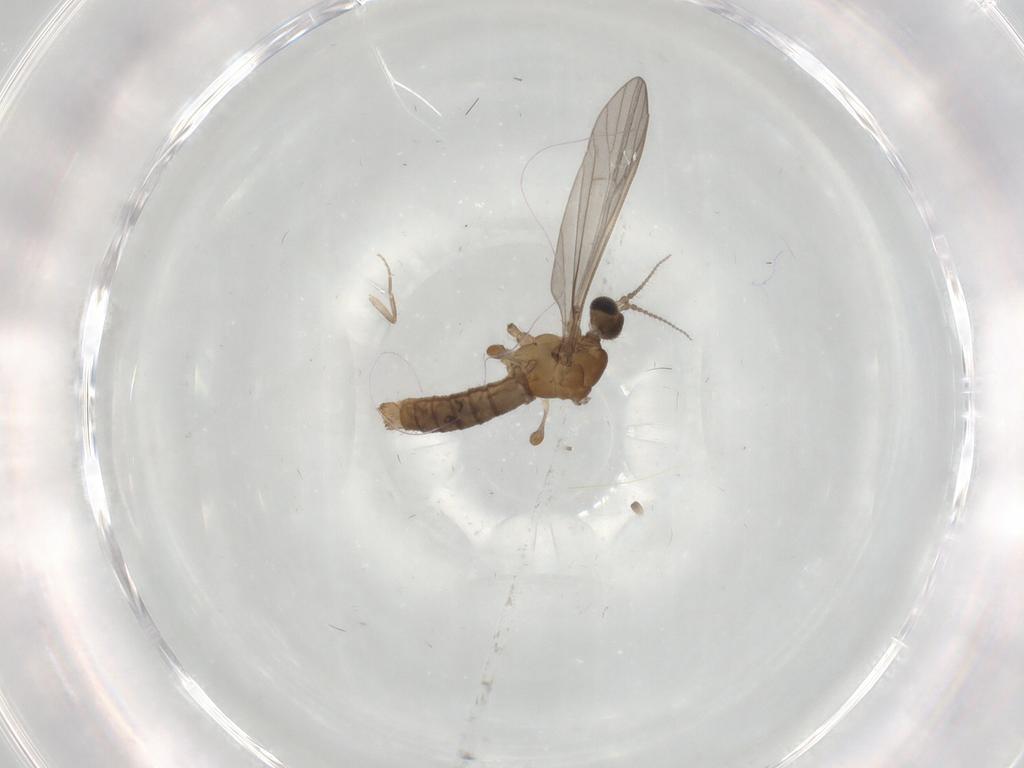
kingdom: Animalia
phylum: Arthropoda
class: Insecta
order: Diptera
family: Limoniidae
